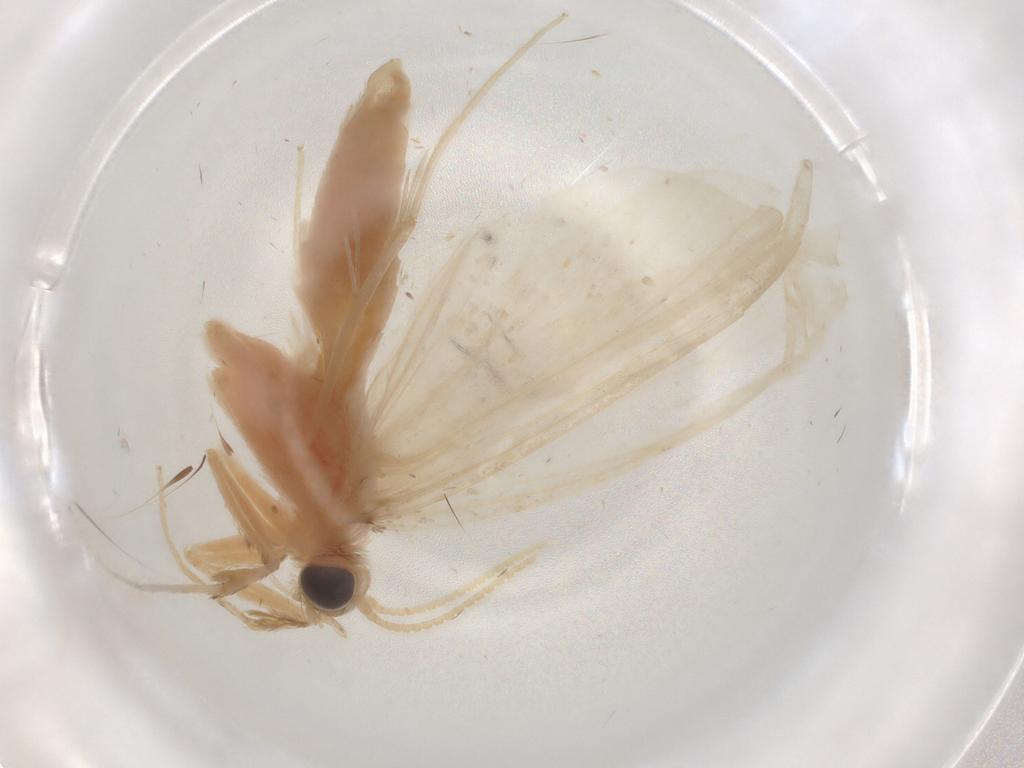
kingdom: Animalia
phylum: Arthropoda
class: Insecta
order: Lepidoptera
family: Crambidae
